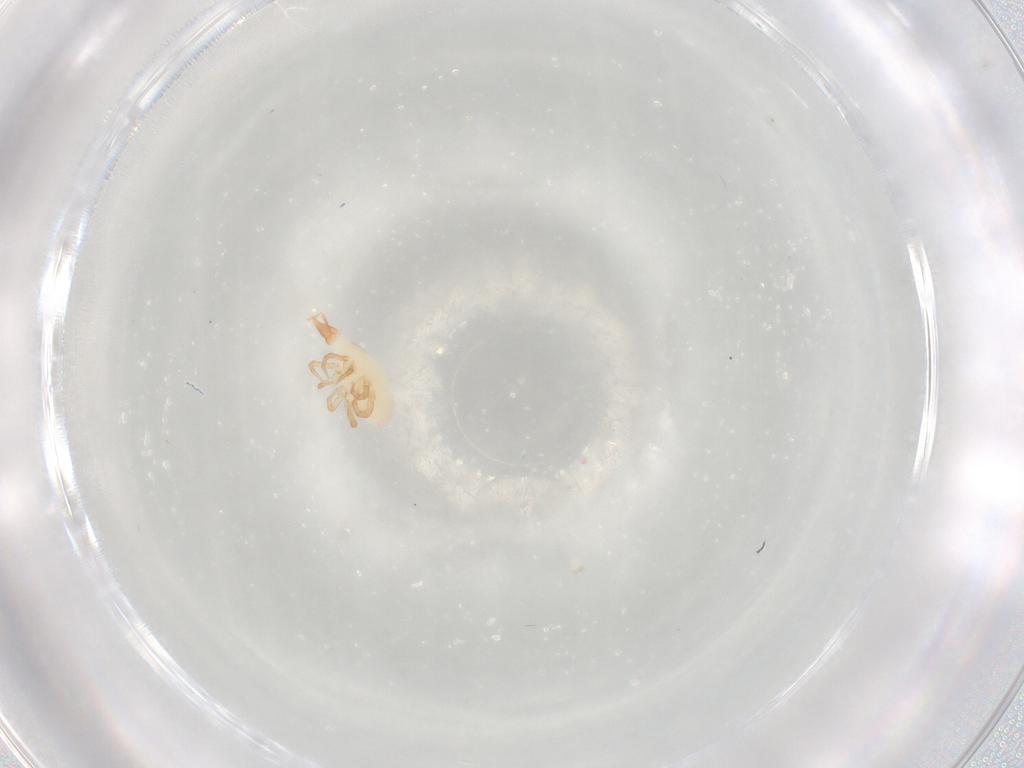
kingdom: Animalia
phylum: Arthropoda
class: Arachnida
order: Trombidiformes
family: Bdellidae
